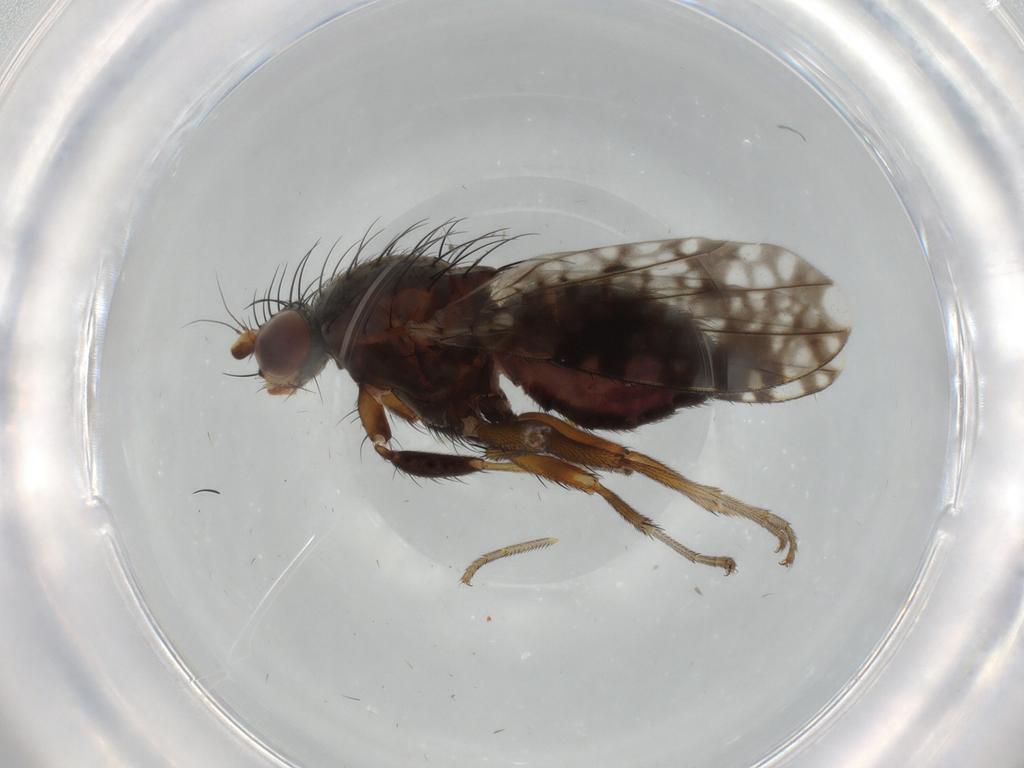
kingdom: Animalia
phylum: Arthropoda
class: Insecta
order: Diptera
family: Tephritidae
